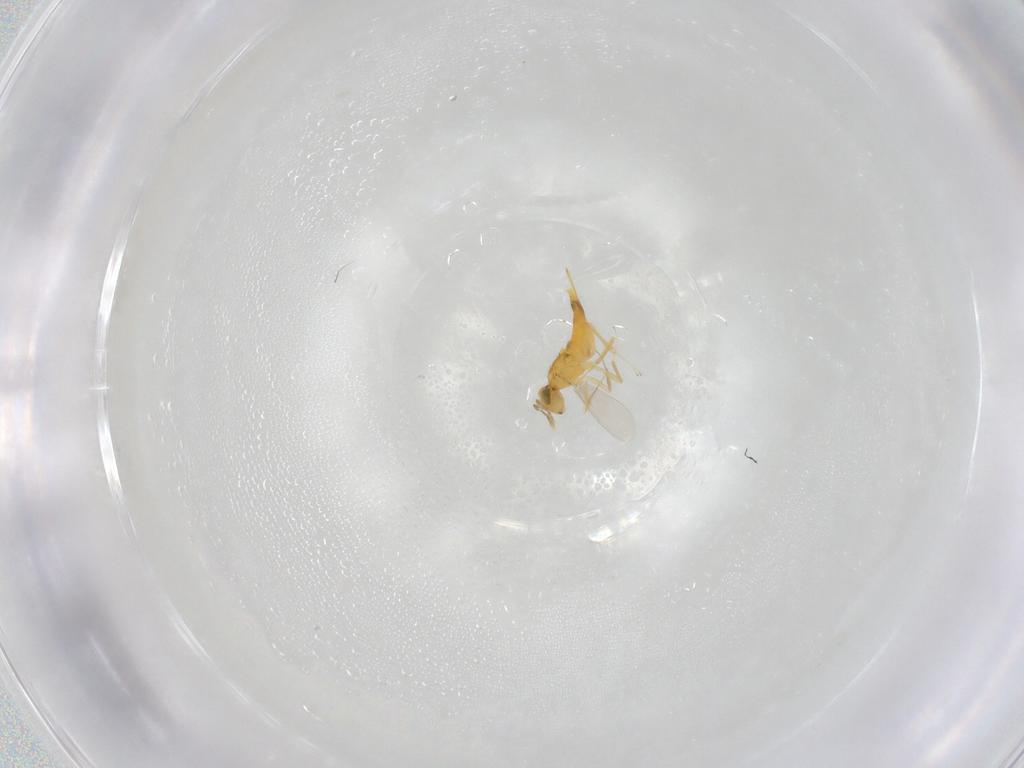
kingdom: Animalia
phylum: Arthropoda
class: Insecta
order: Hymenoptera
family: Aphelinidae
